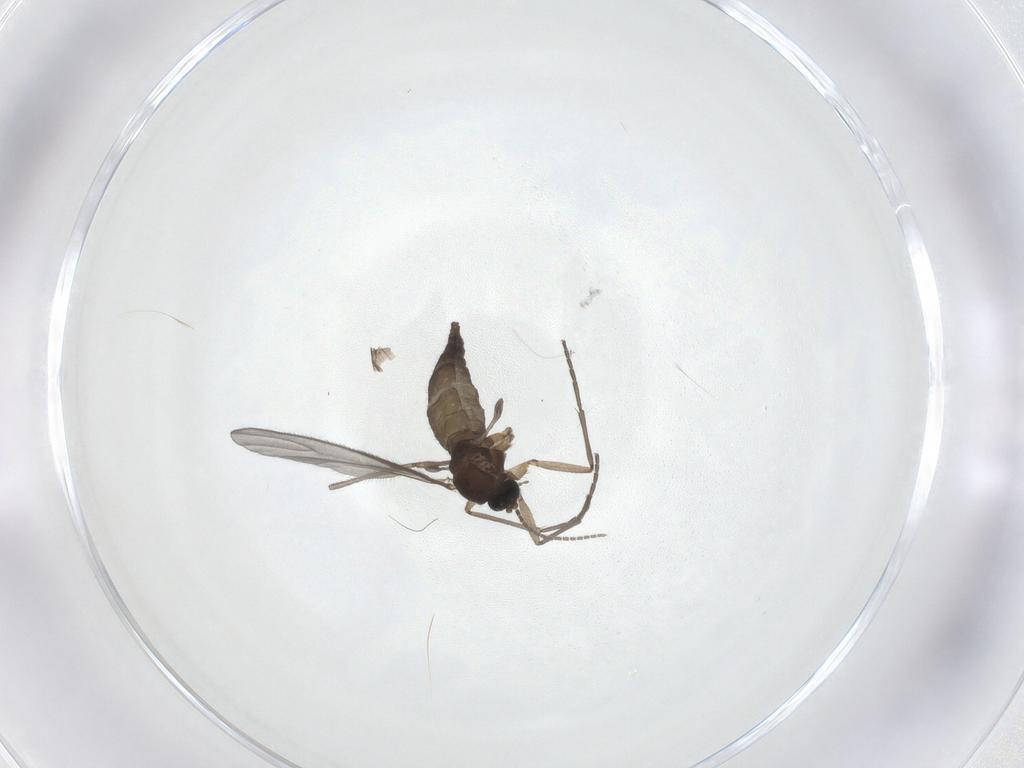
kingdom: Animalia
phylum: Arthropoda
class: Insecta
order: Diptera
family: Sciaridae
